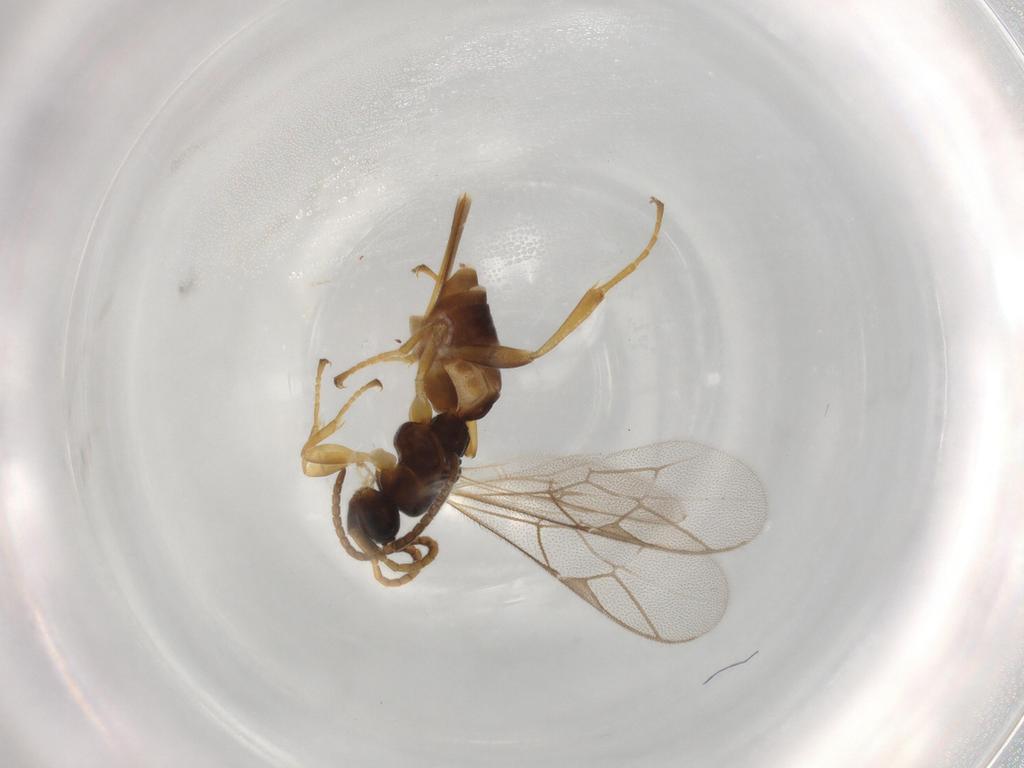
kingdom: Animalia
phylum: Arthropoda
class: Insecta
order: Hymenoptera
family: Ichneumonidae
